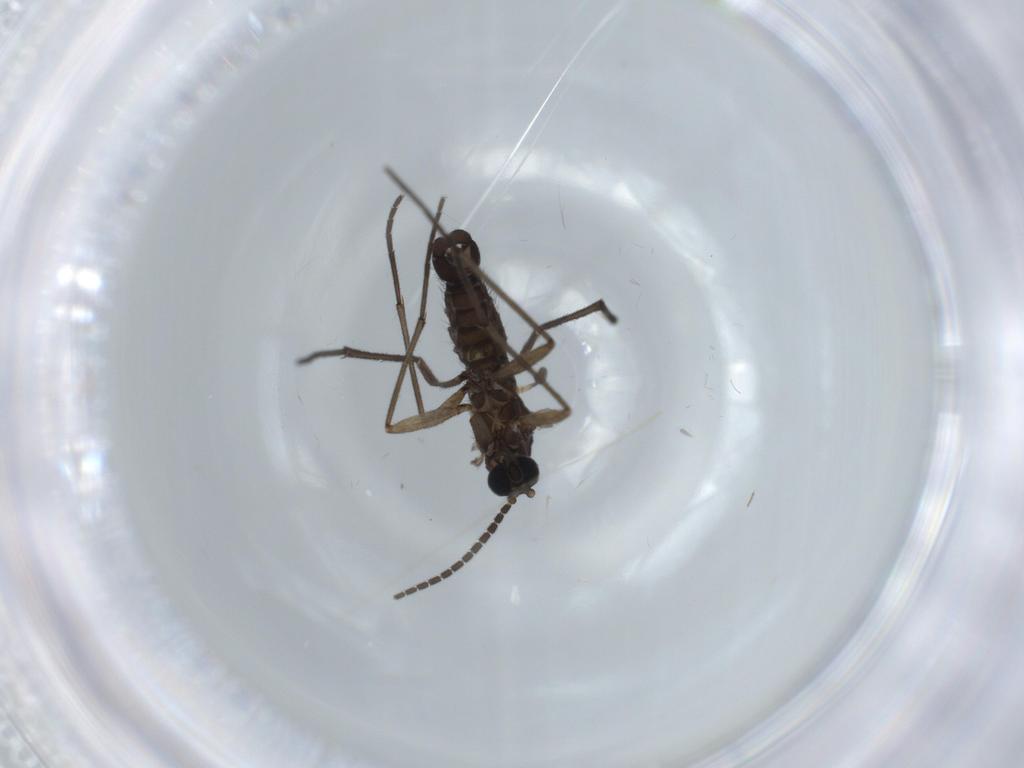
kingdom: Animalia
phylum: Arthropoda
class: Insecta
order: Diptera
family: Sciaridae
